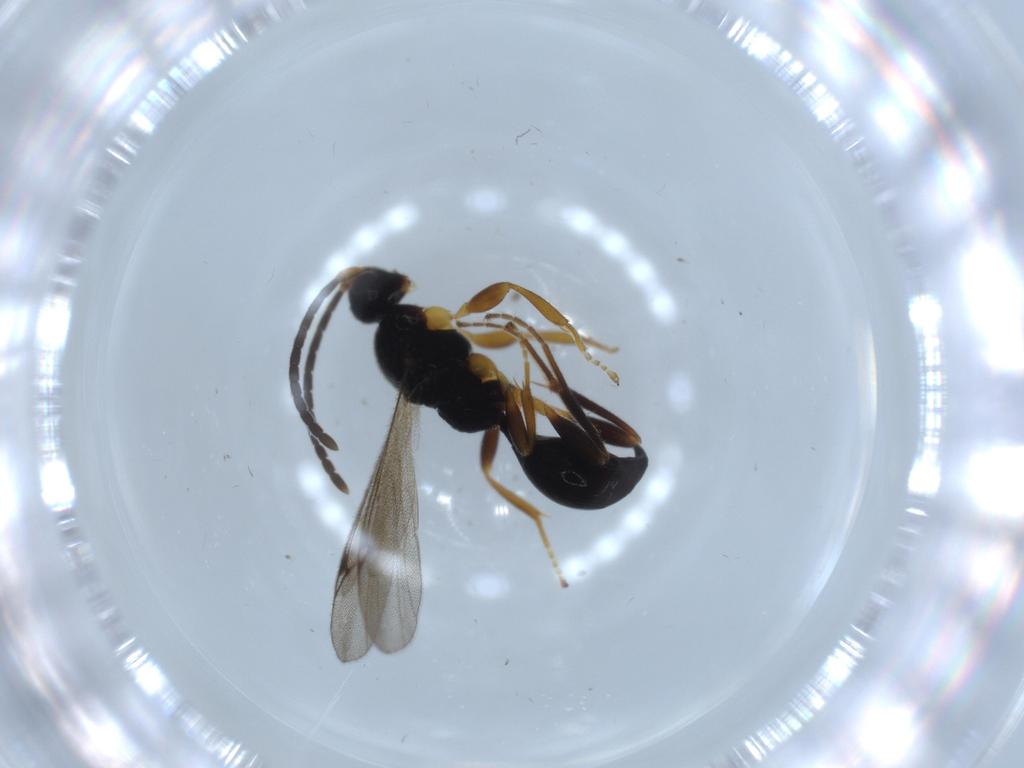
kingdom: Animalia
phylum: Arthropoda
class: Insecta
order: Hymenoptera
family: Proctotrupidae
